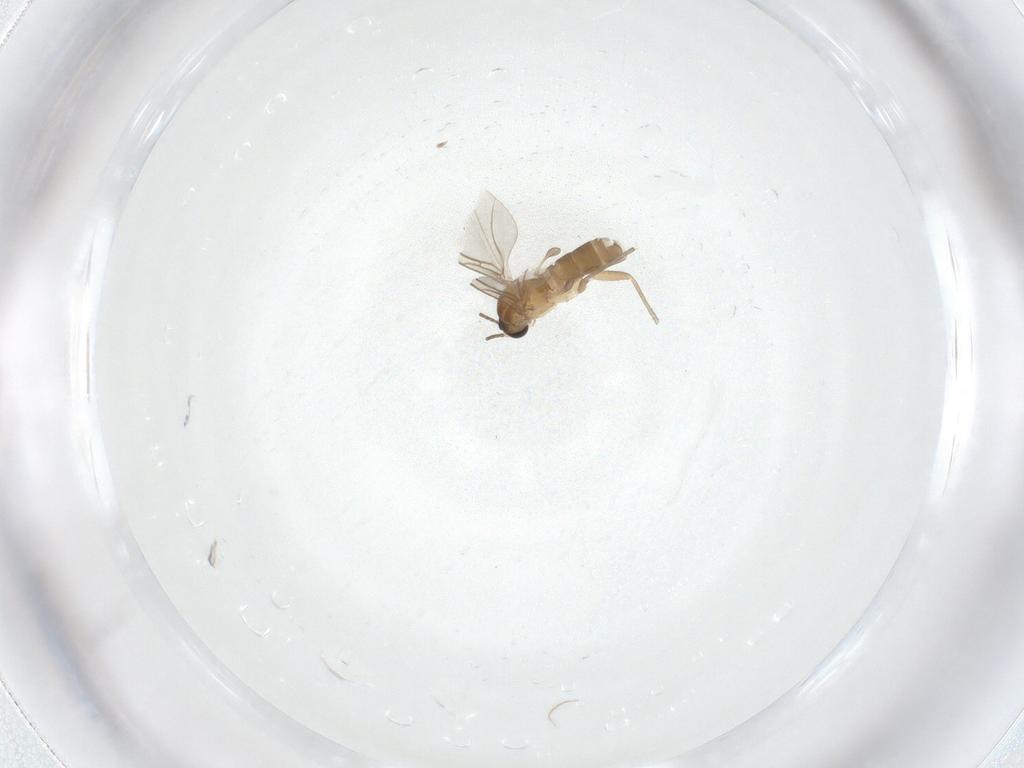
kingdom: Animalia
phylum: Arthropoda
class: Insecta
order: Diptera
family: Sciaridae
